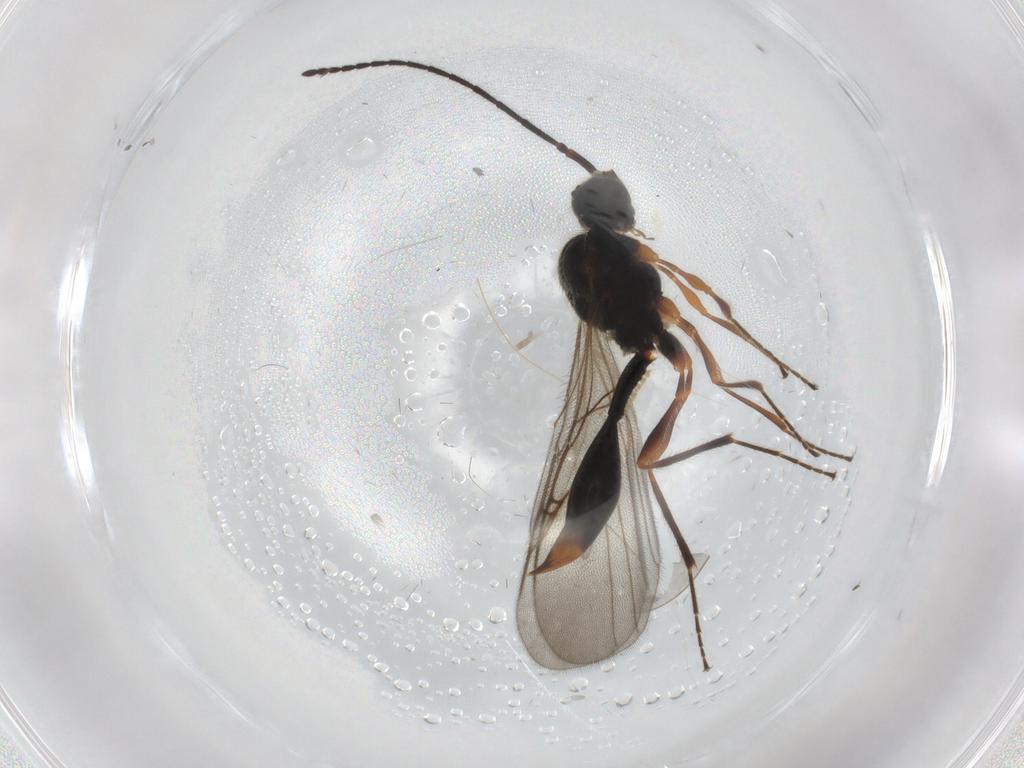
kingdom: Animalia
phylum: Arthropoda
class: Insecta
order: Hymenoptera
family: Diapriidae
